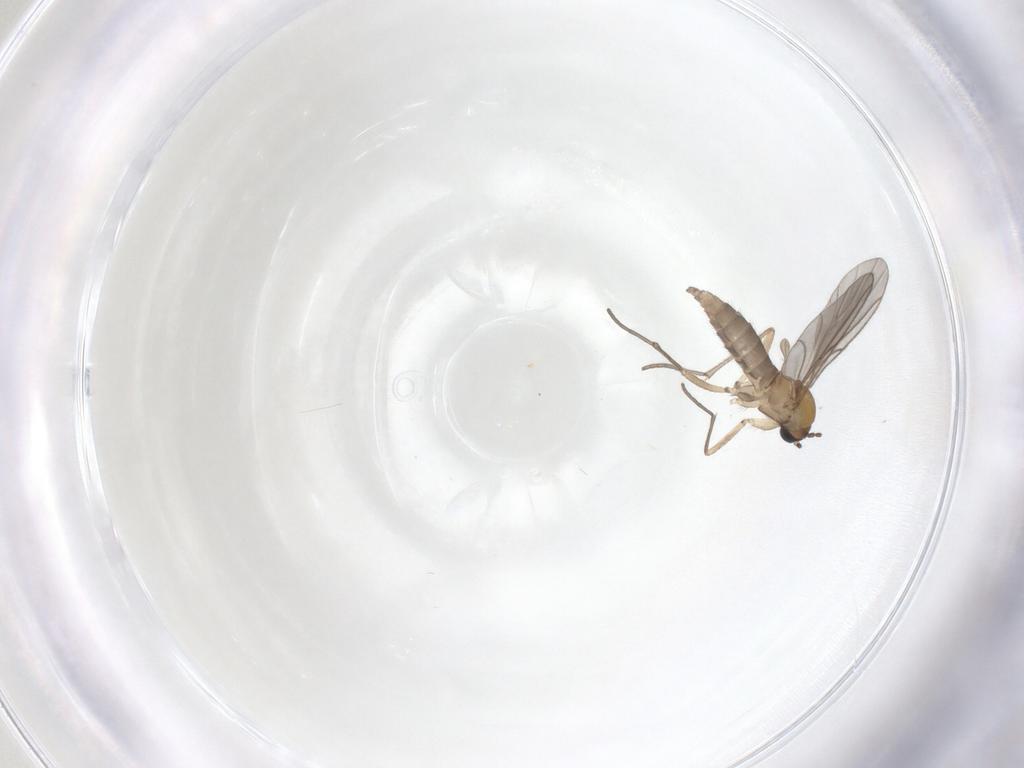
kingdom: Animalia
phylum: Arthropoda
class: Insecta
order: Diptera
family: Sciaridae
